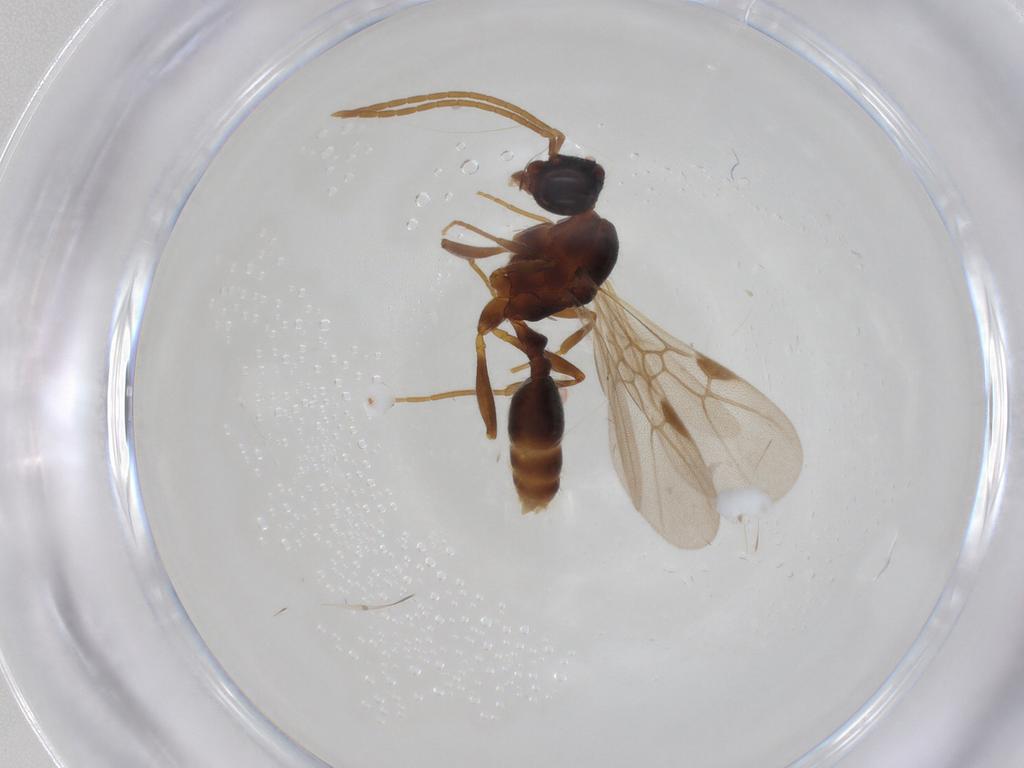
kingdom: Animalia
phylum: Arthropoda
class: Insecta
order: Hymenoptera
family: Formicidae
